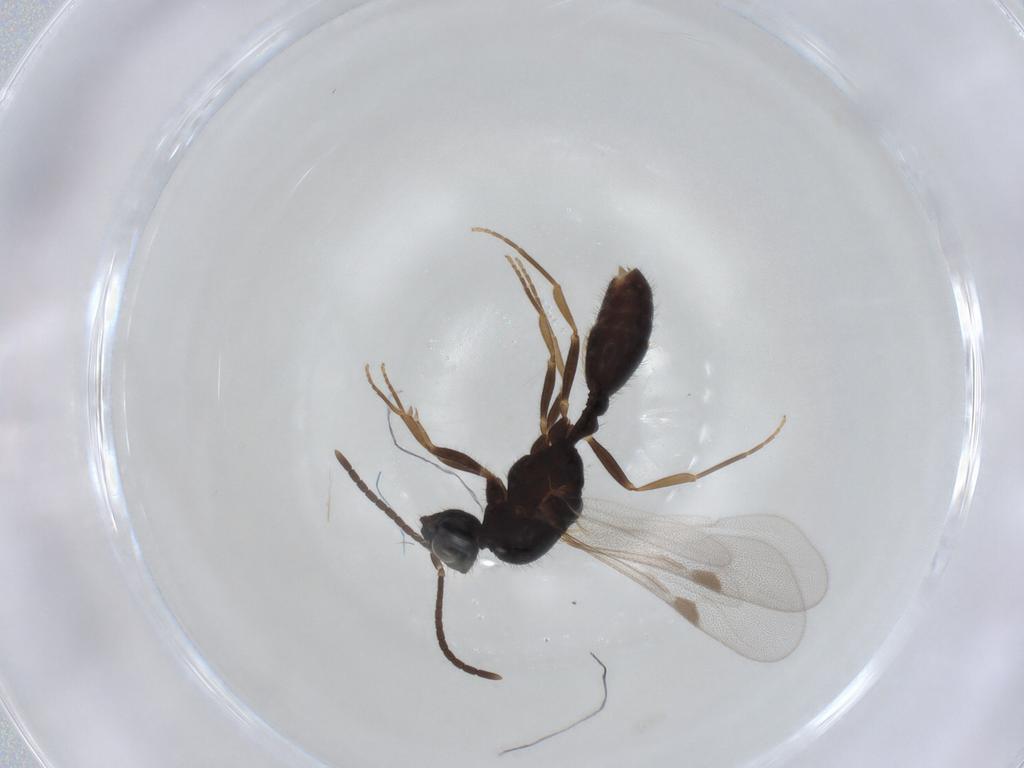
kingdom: Animalia
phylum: Arthropoda
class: Insecta
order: Hymenoptera
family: Formicidae
